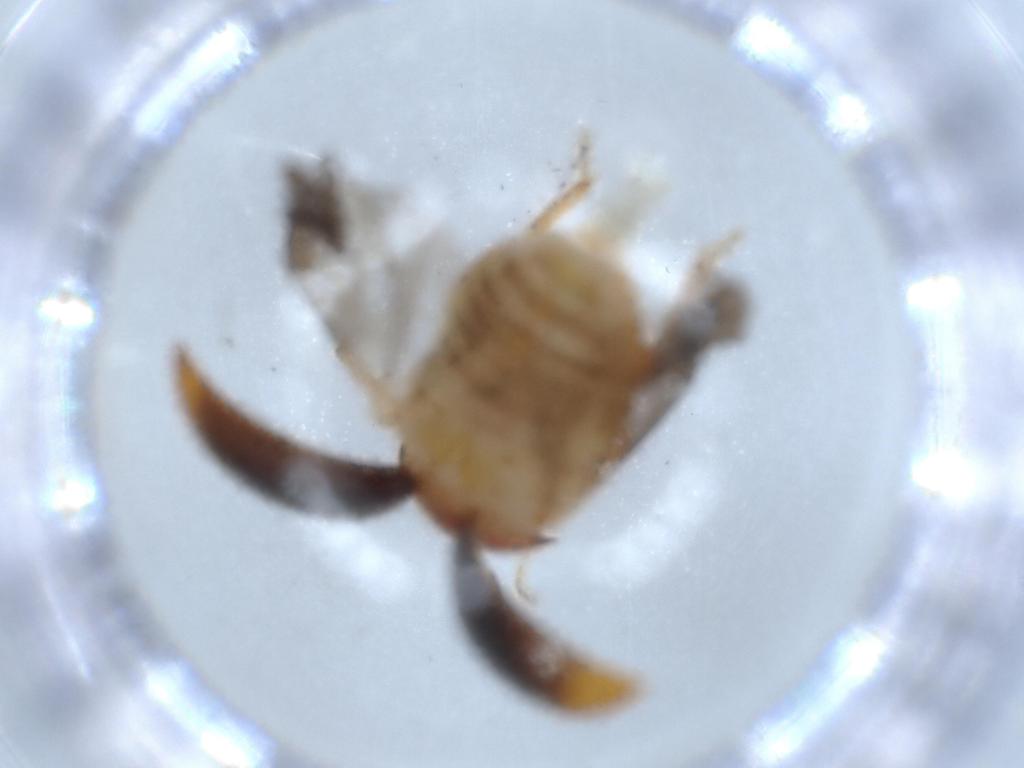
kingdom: Animalia
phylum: Arthropoda
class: Insecta
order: Coleoptera
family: Scirtidae
